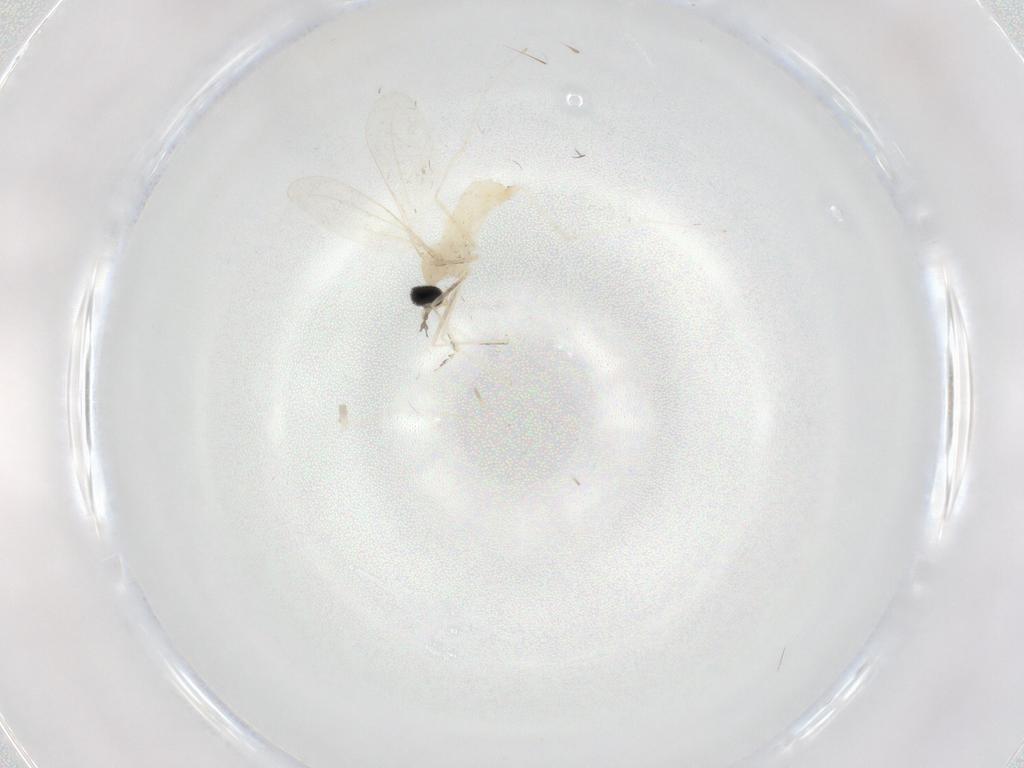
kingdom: Animalia
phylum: Arthropoda
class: Insecta
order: Diptera
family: Cecidomyiidae
